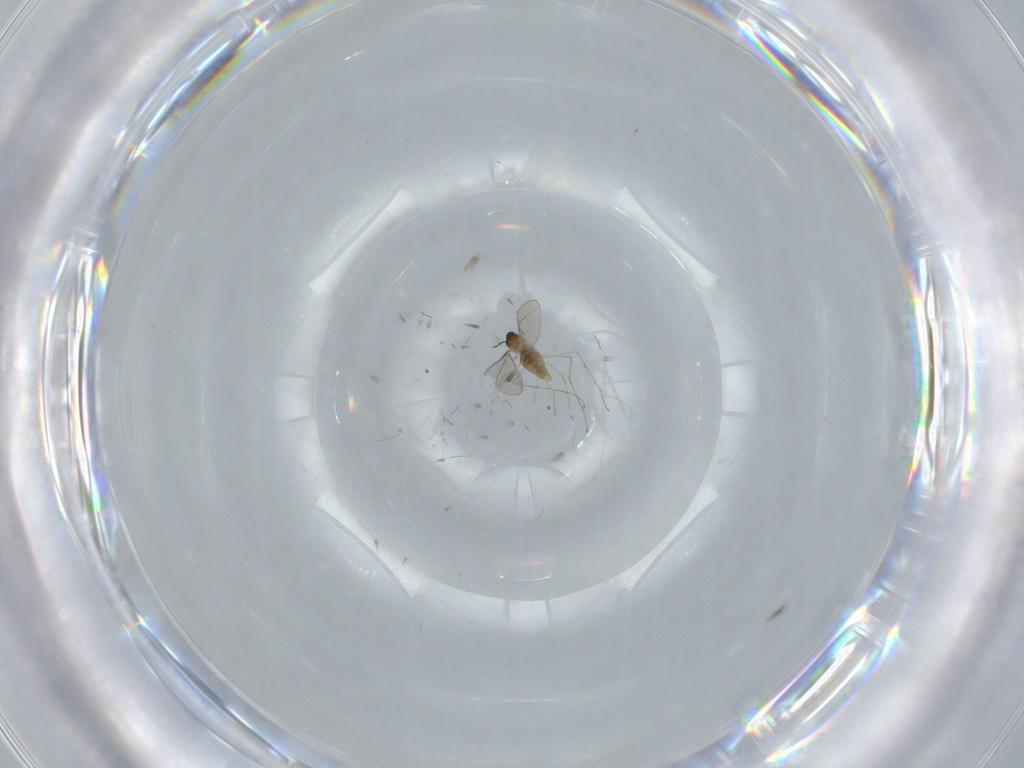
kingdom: Animalia
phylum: Arthropoda
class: Insecta
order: Diptera
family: Cecidomyiidae
